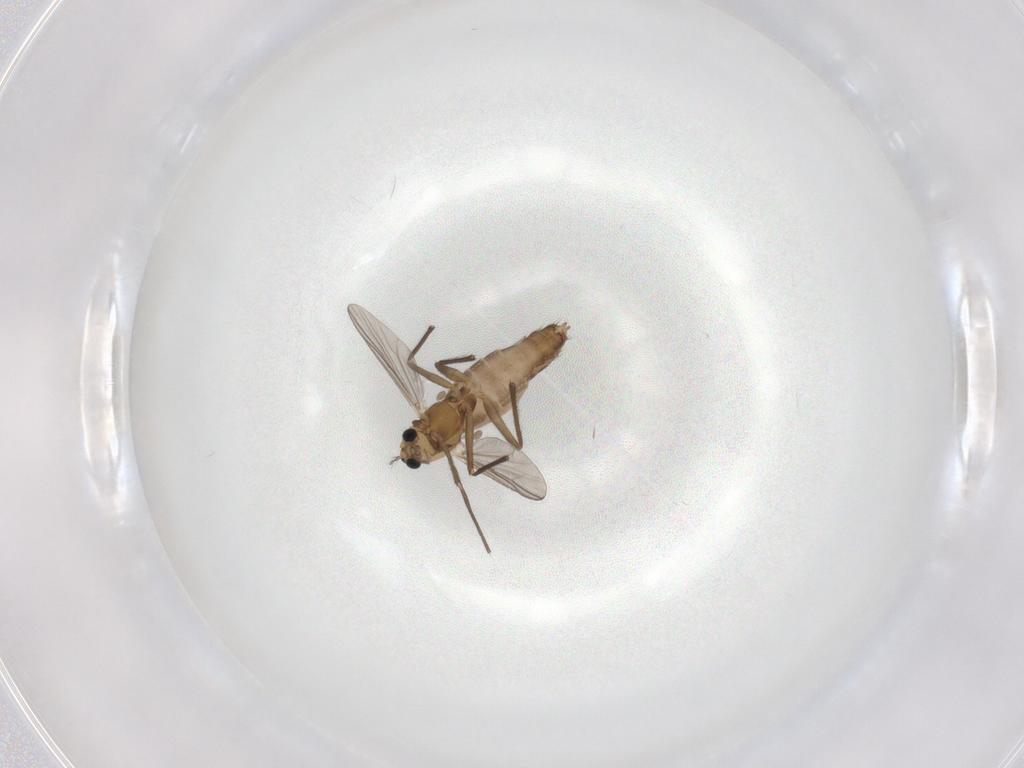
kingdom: Animalia
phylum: Arthropoda
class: Insecta
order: Diptera
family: Chironomidae
